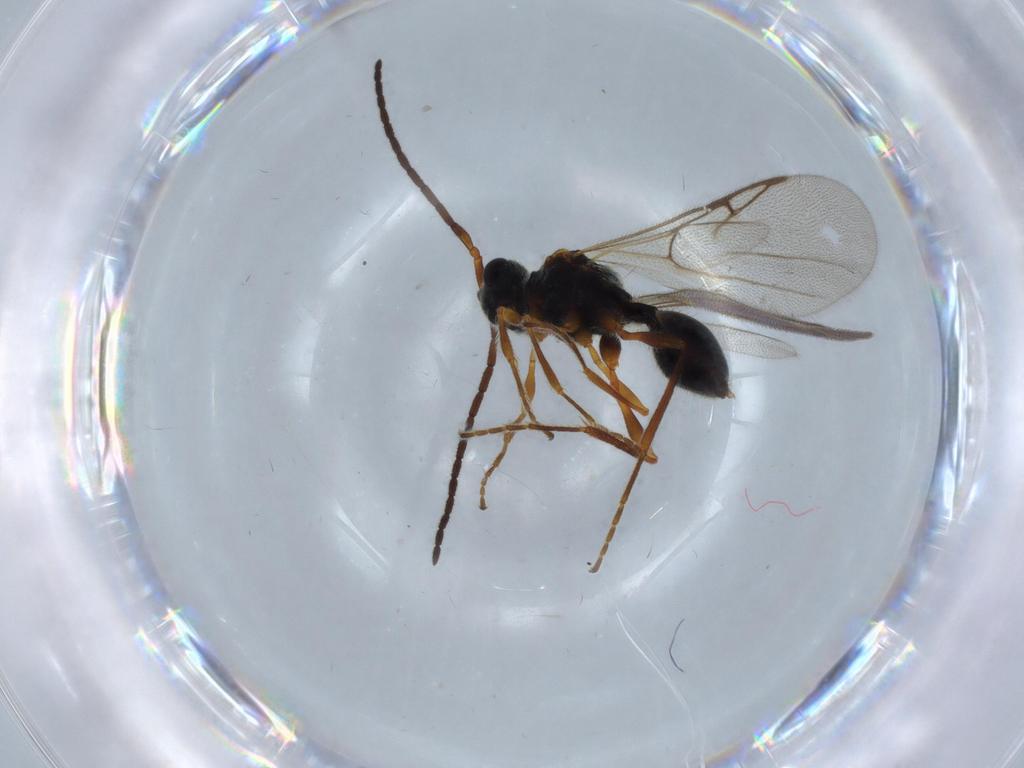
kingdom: Animalia
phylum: Arthropoda
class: Insecta
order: Hymenoptera
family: Diapriidae
